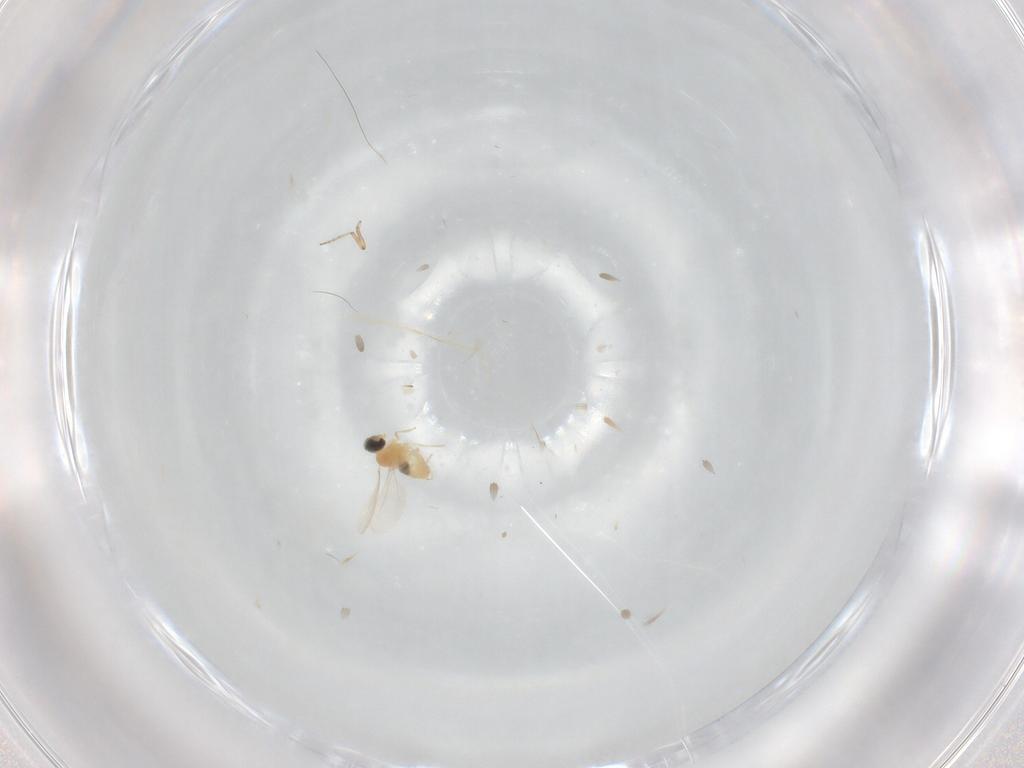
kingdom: Animalia
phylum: Arthropoda
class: Insecta
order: Diptera
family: Cecidomyiidae
